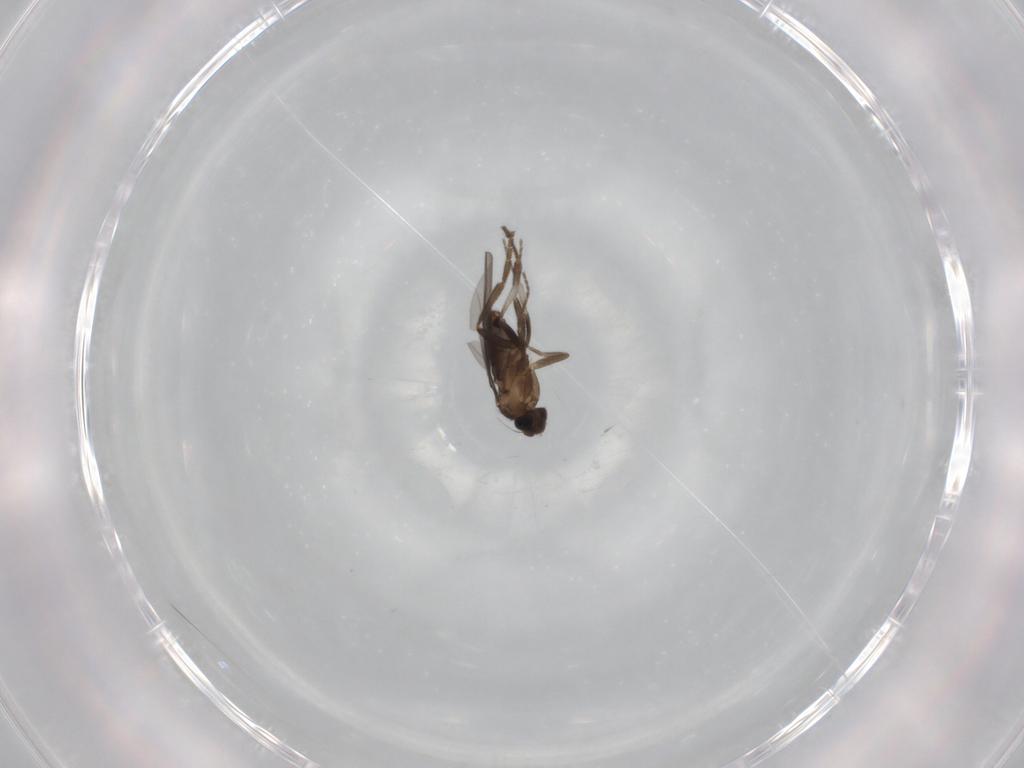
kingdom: Animalia
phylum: Arthropoda
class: Insecta
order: Diptera
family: Phoridae
